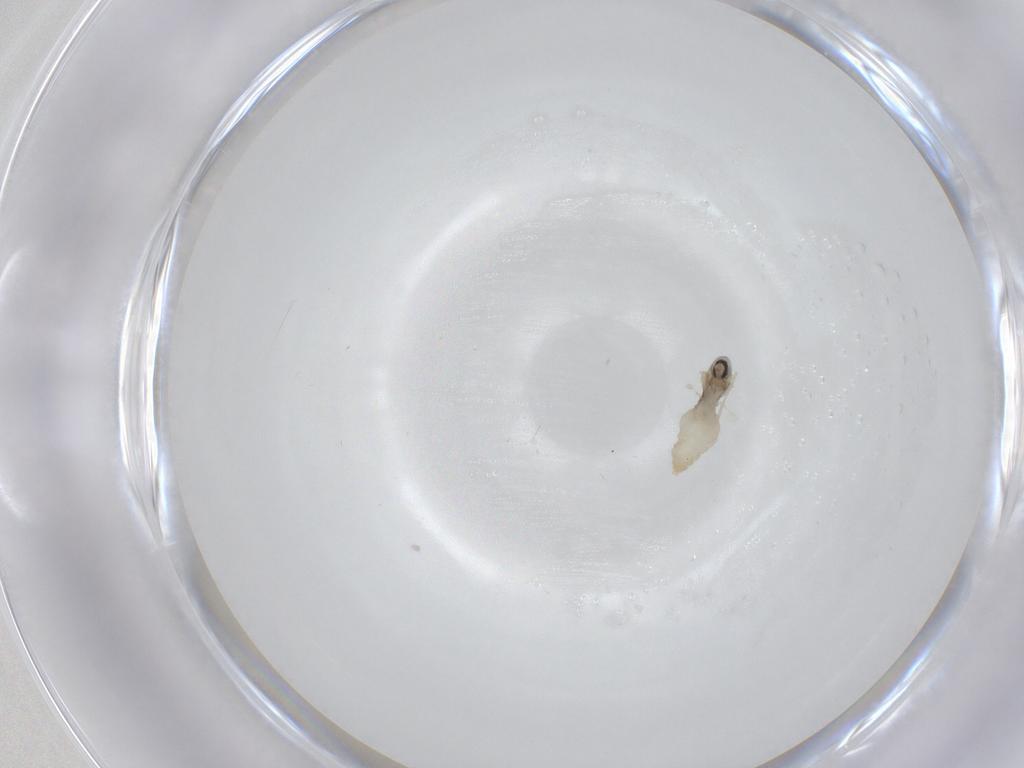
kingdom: Animalia
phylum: Arthropoda
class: Insecta
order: Diptera
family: Cecidomyiidae
